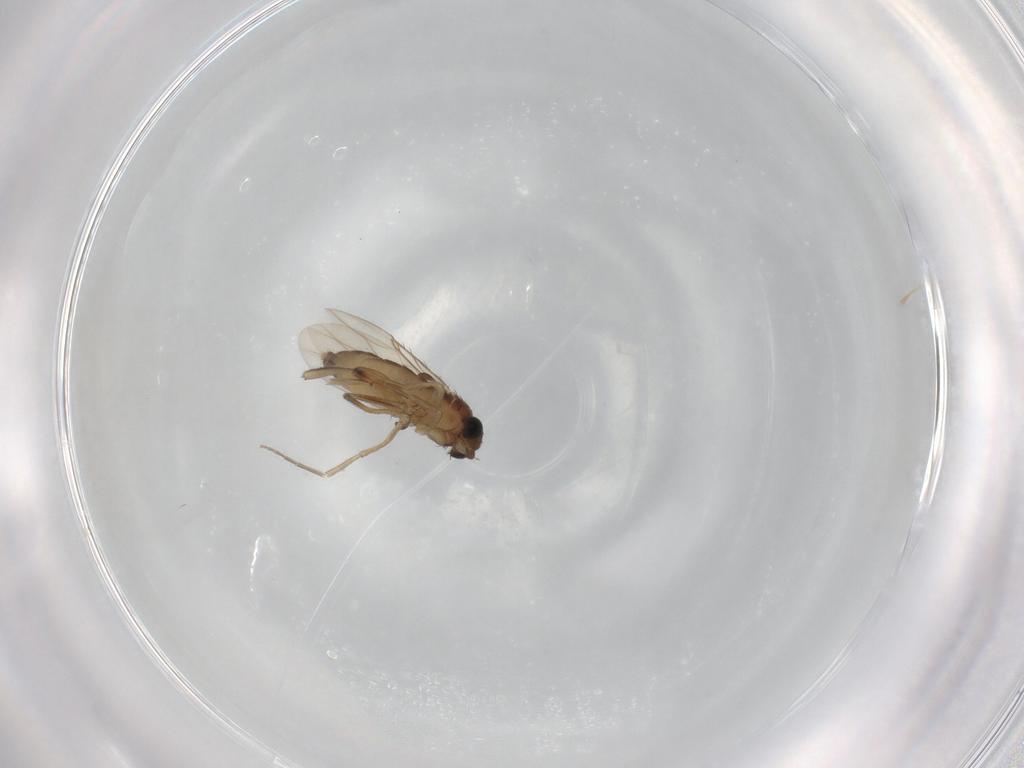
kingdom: Animalia
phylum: Arthropoda
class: Insecta
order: Diptera
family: Phoridae
